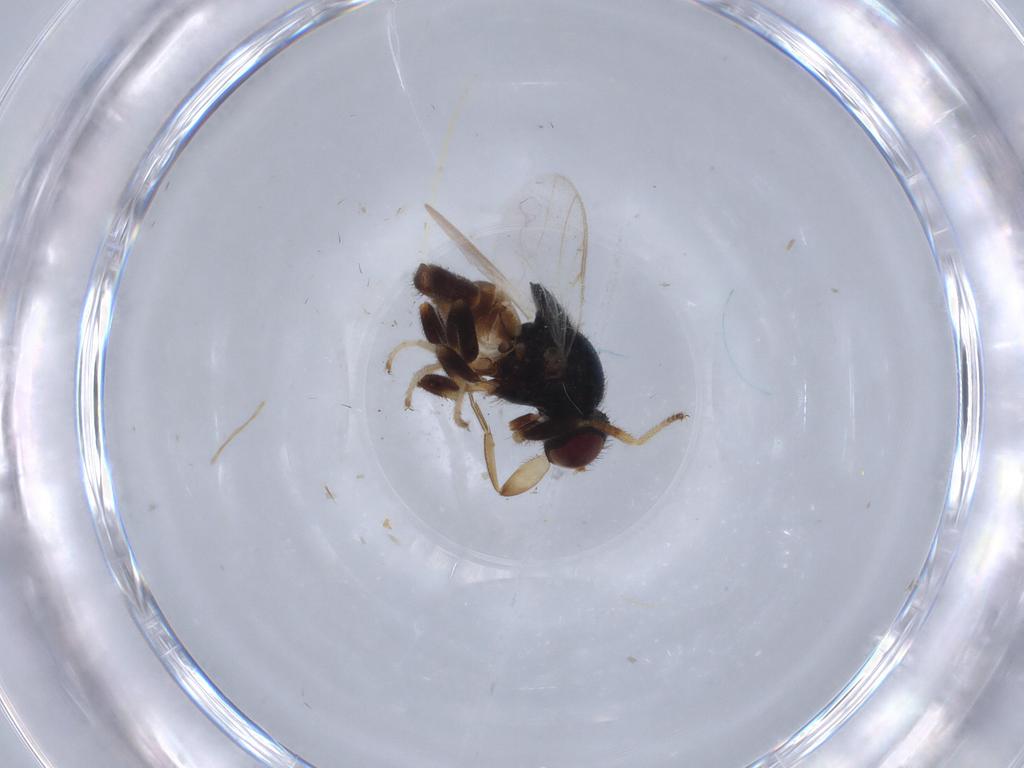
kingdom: Animalia
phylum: Arthropoda
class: Insecta
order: Diptera
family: Chloropidae
